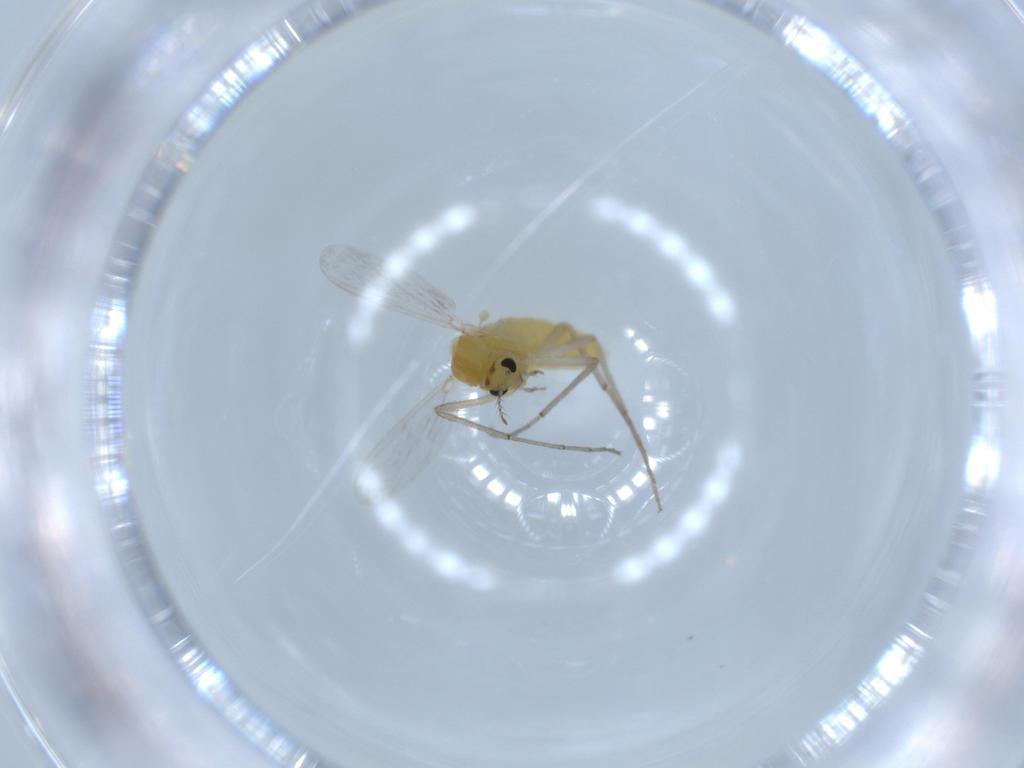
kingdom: Animalia
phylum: Arthropoda
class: Insecta
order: Diptera
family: Chironomidae
